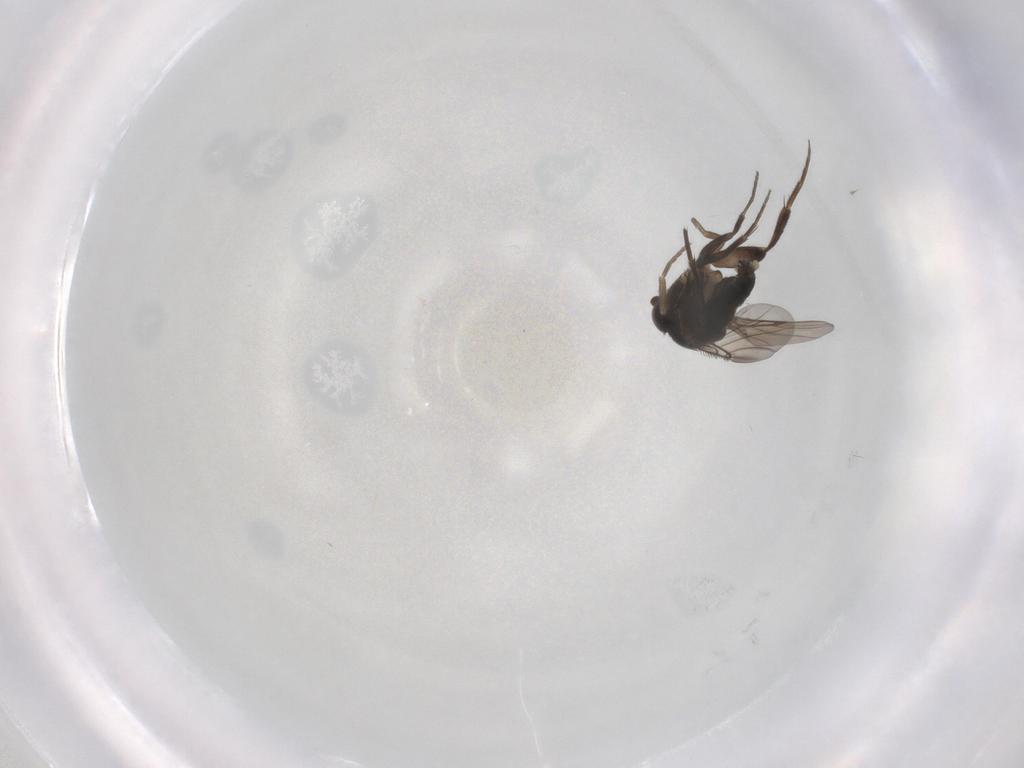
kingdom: Animalia
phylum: Arthropoda
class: Insecta
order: Diptera
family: Phoridae
